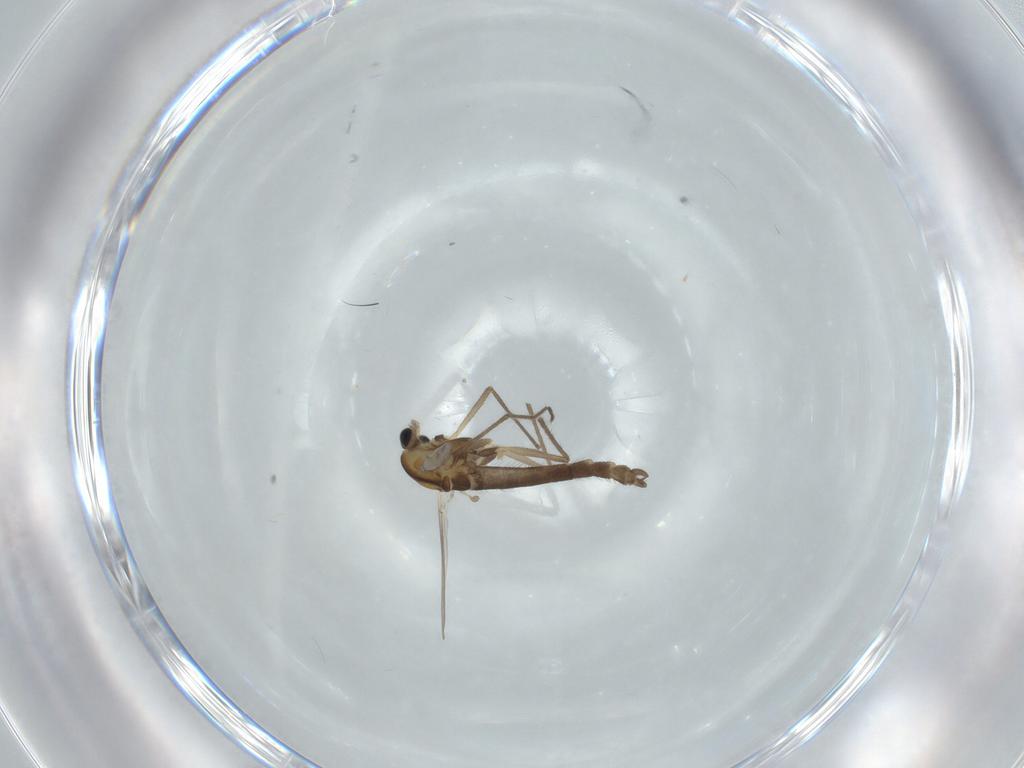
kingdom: Animalia
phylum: Arthropoda
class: Insecta
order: Diptera
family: Chironomidae
